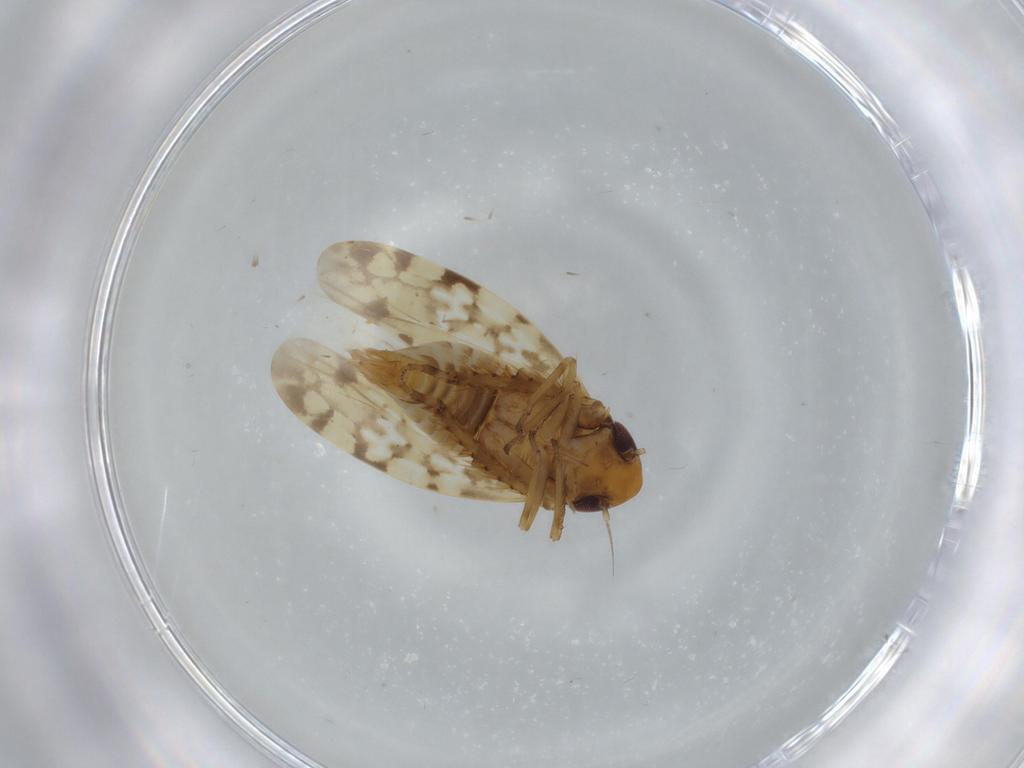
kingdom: Animalia
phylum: Arthropoda
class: Insecta
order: Hemiptera
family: Cicadellidae
